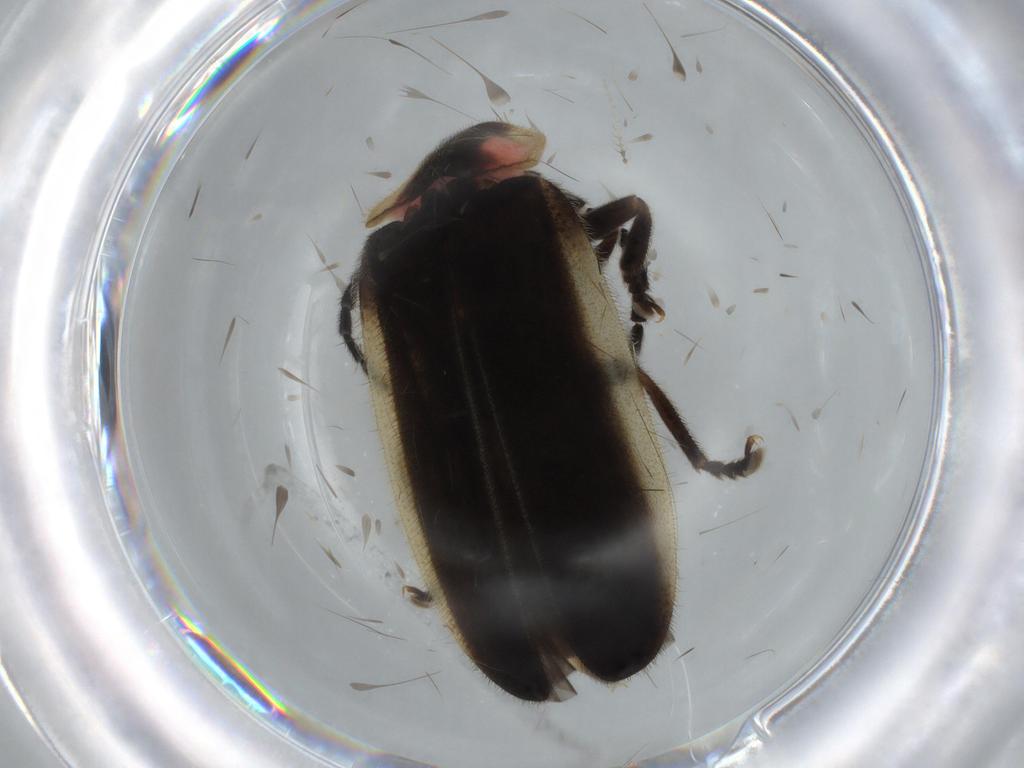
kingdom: Animalia
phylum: Arthropoda
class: Insecta
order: Coleoptera
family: Lampyridae
